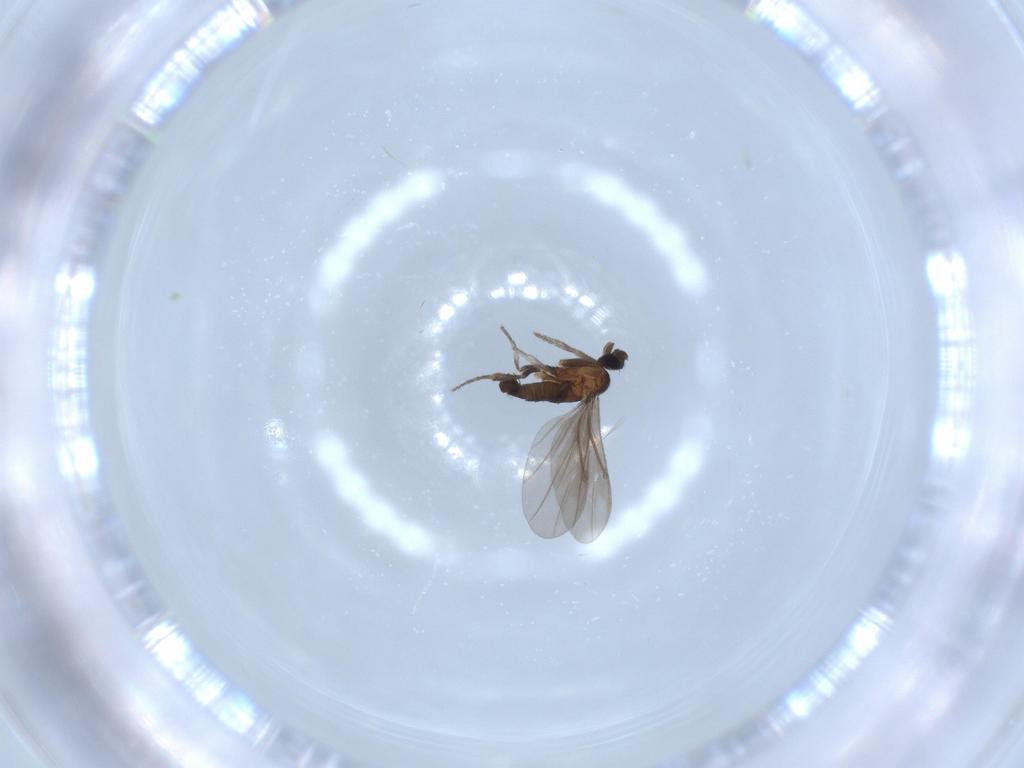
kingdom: Animalia
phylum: Arthropoda
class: Insecta
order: Diptera
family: Phoridae
